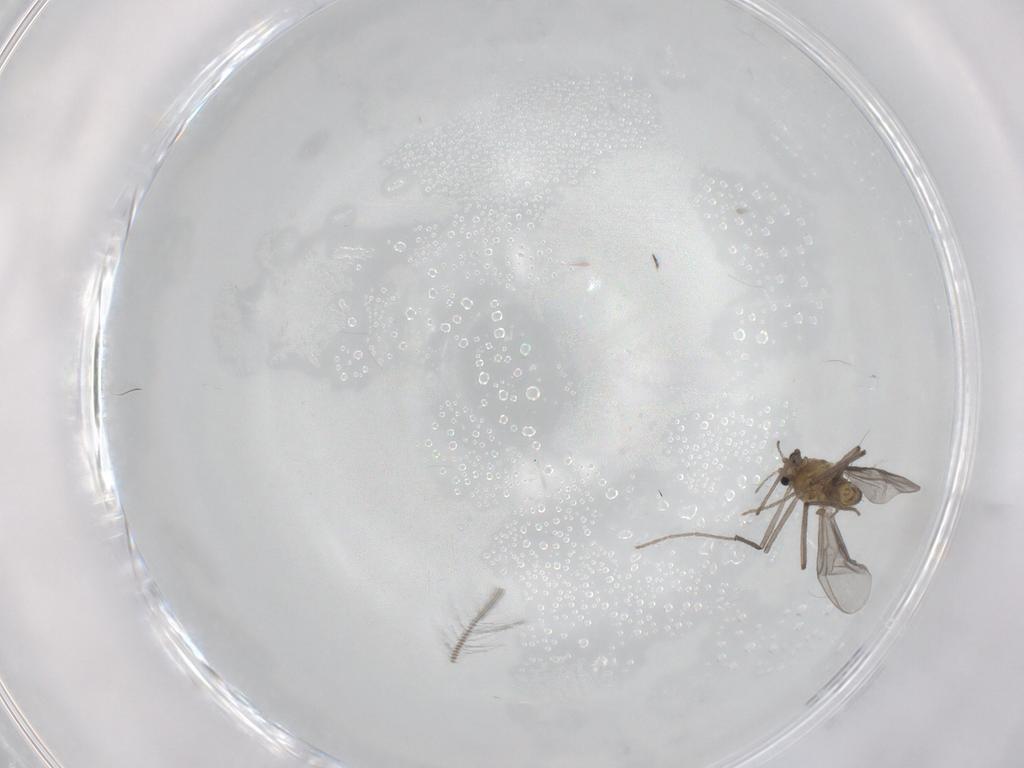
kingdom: Animalia
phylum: Arthropoda
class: Insecta
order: Diptera
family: Chironomidae
